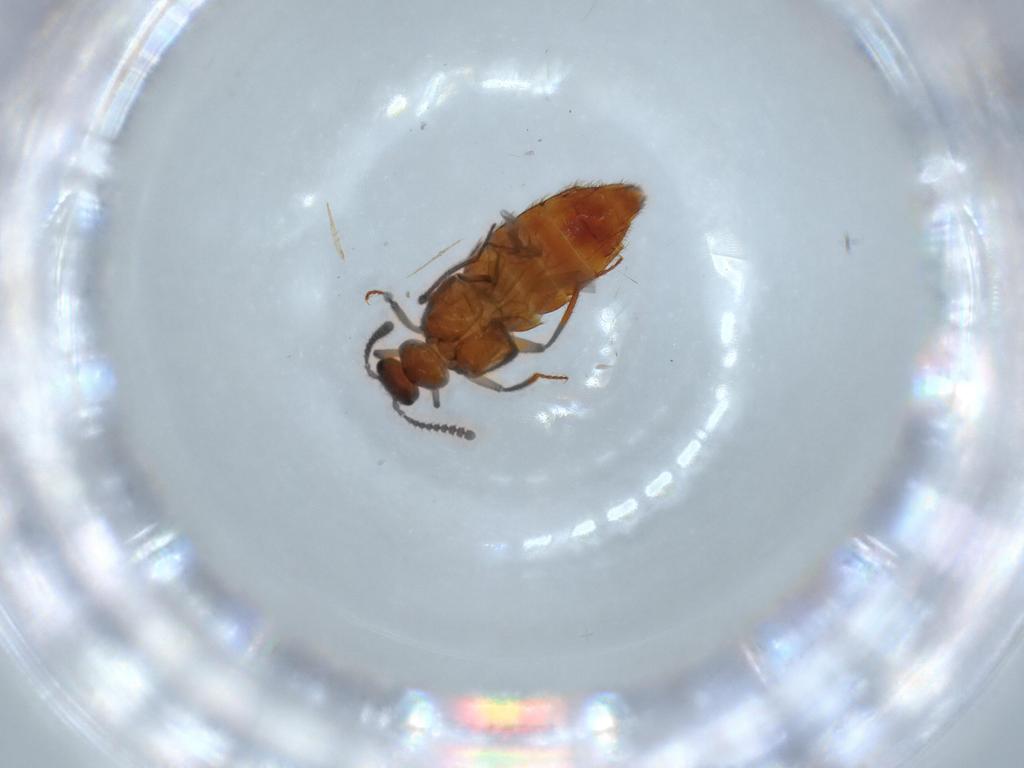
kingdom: Animalia
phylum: Arthropoda
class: Insecta
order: Coleoptera
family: Staphylinidae
